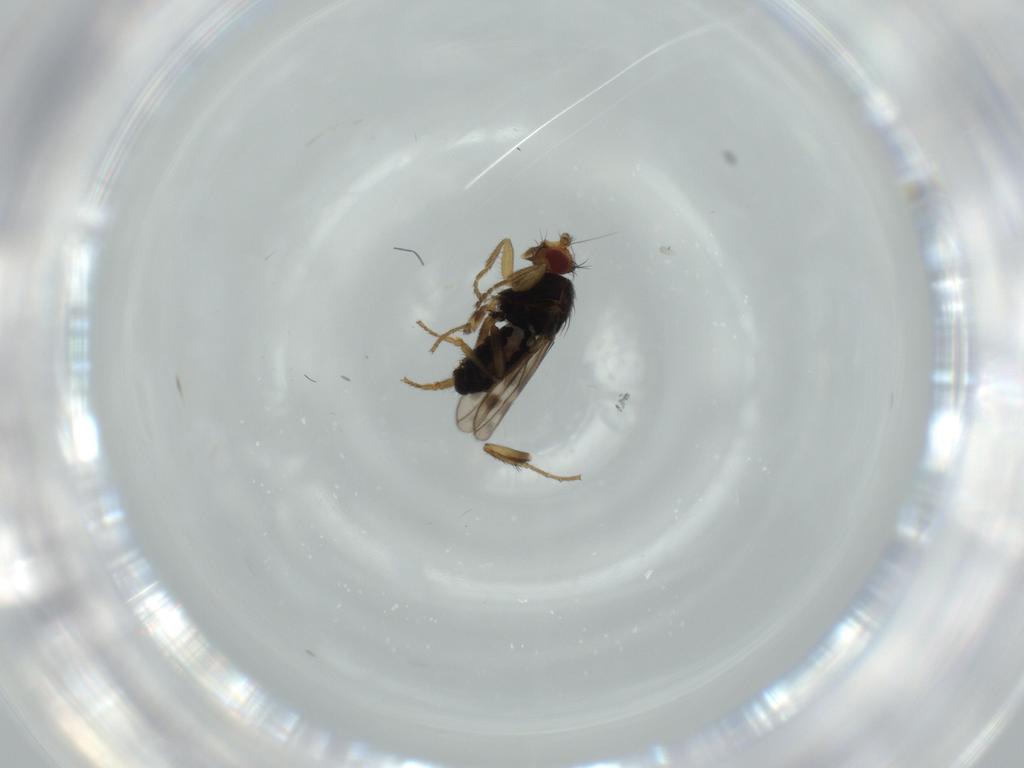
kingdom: Animalia
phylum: Arthropoda
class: Insecta
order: Diptera
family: Sphaeroceridae
